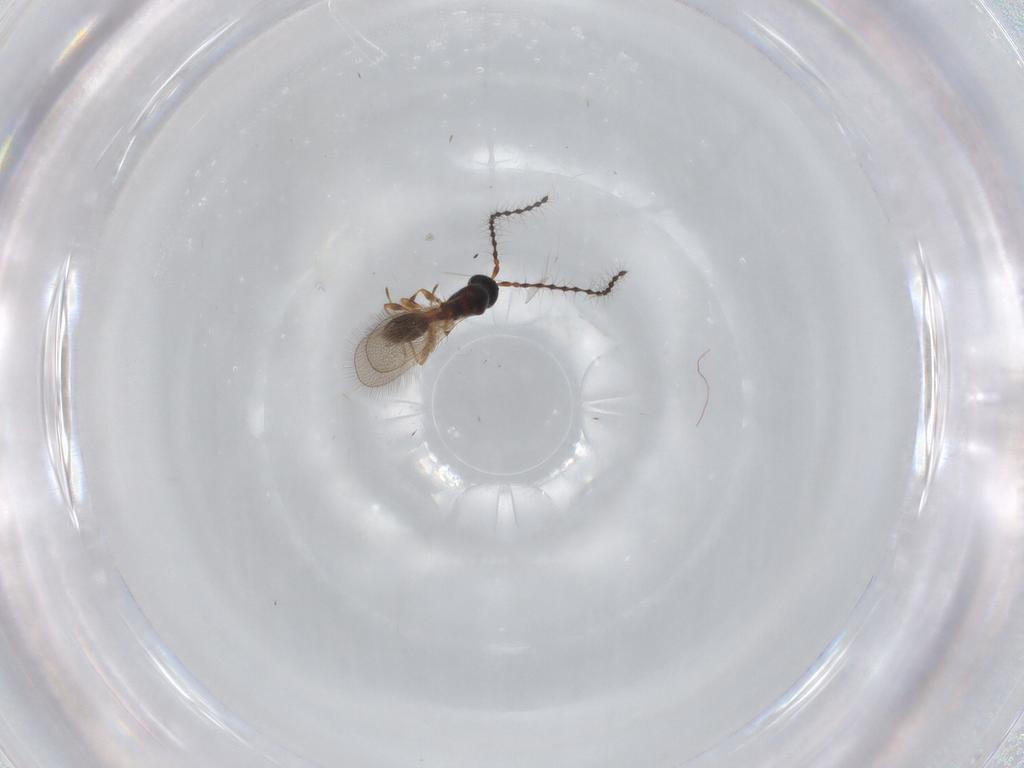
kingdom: Animalia
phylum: Arthropoda
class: Insecta
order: Hymenoptera
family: Diapriidae
